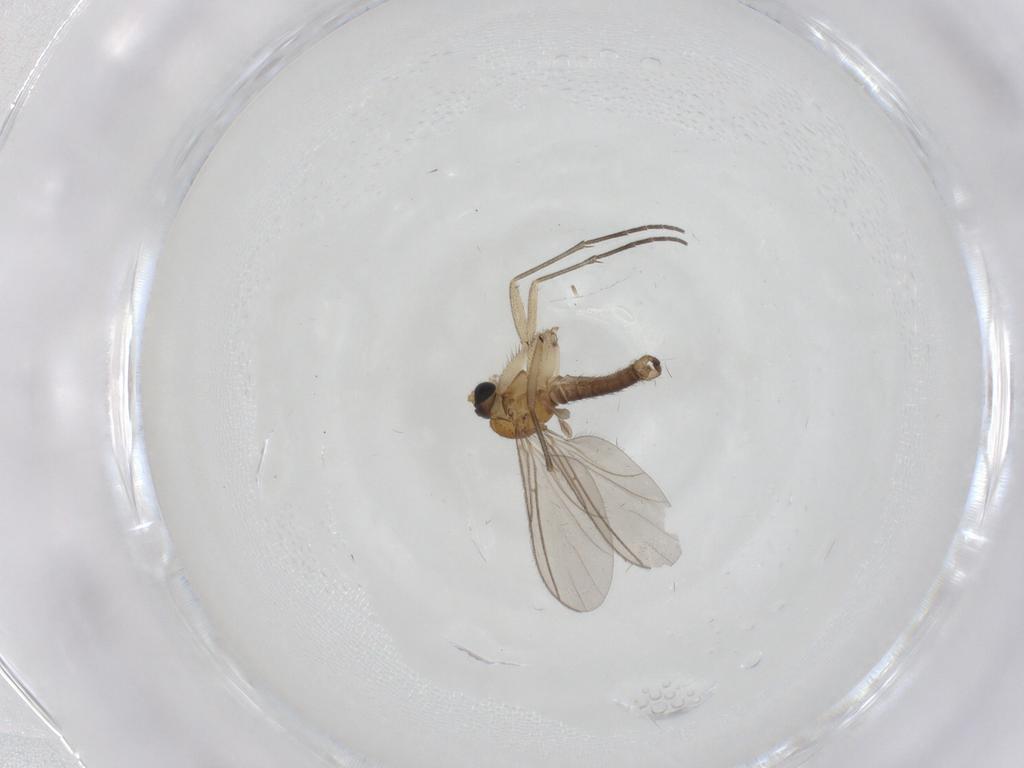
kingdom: Animalia
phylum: Arthropoda
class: Insecta
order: Diptera
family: Sciaridae
